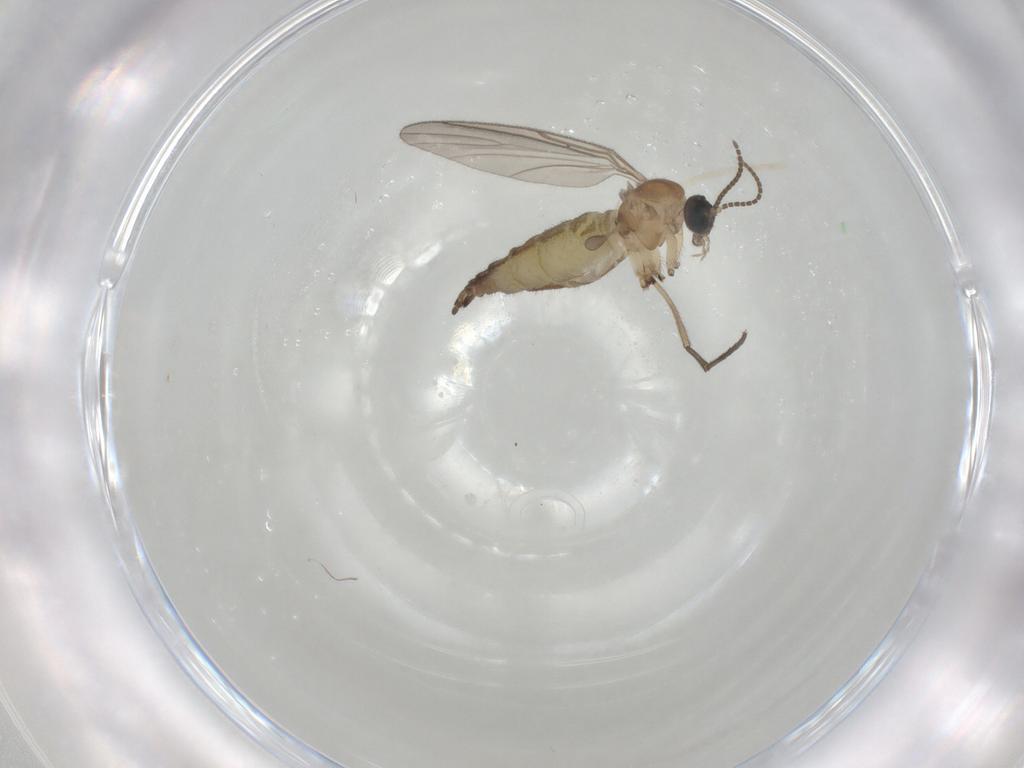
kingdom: Animalia
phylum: Arthropoda
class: Insecta
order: Diptera
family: Sciaridae
